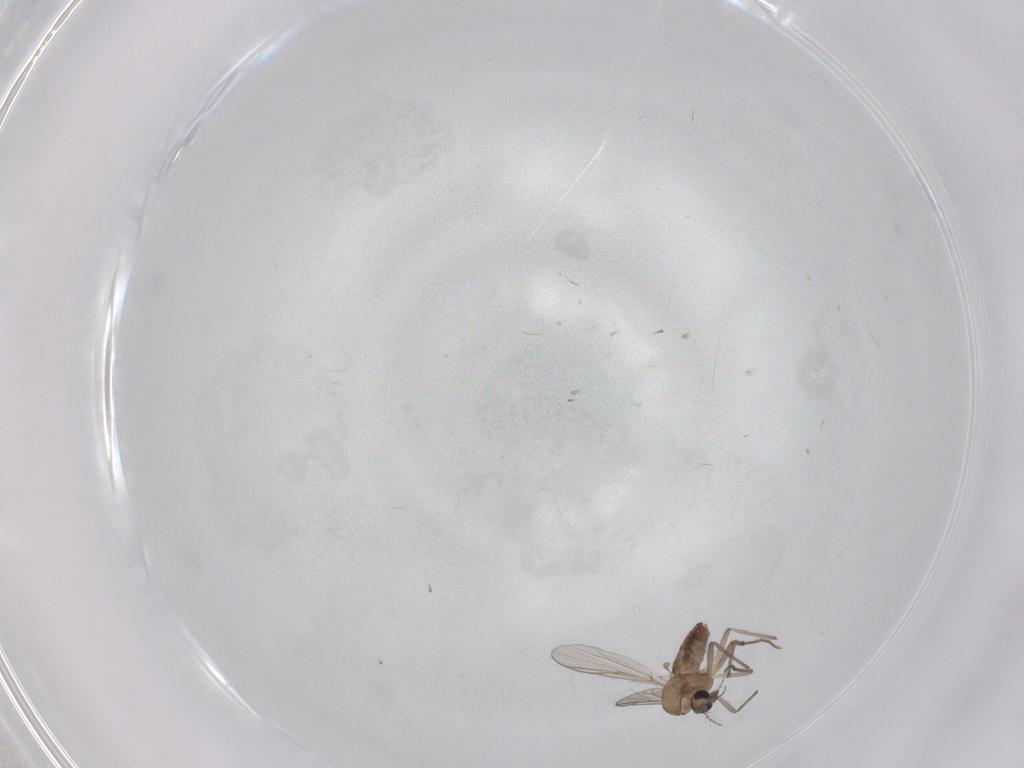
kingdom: Animalia
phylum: Arthropoda
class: Insecta
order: Diptera
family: Chironomidae
